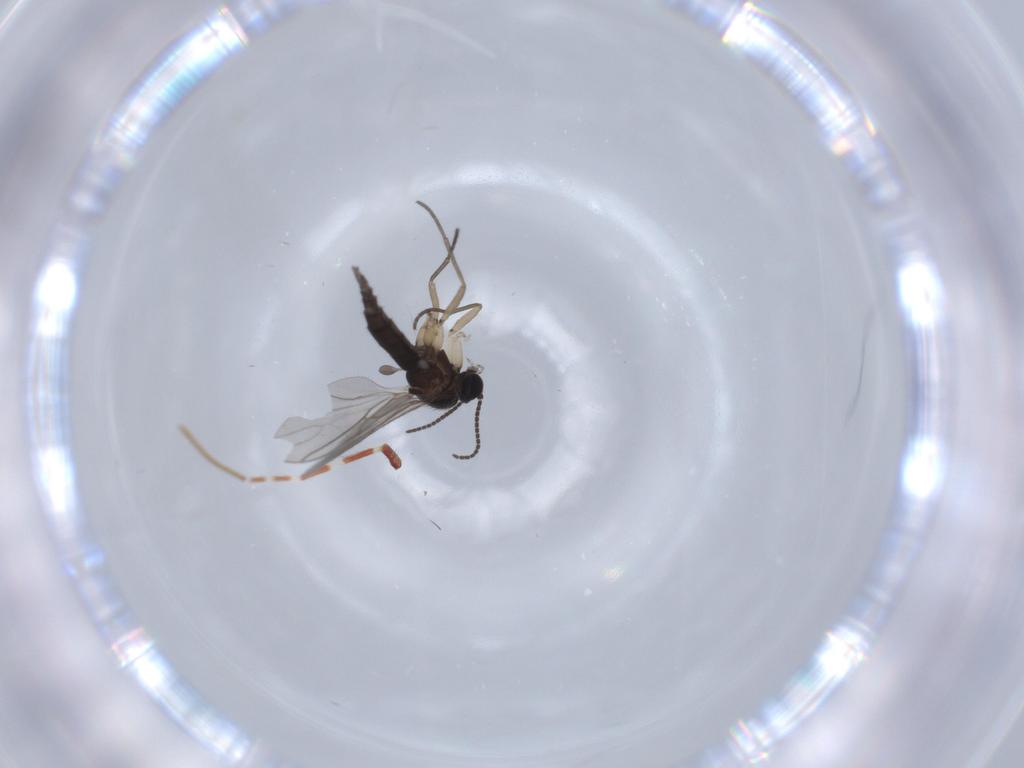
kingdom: Animalia
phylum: Arthropoda
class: Insecta
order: Diptera
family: Sciaridae
